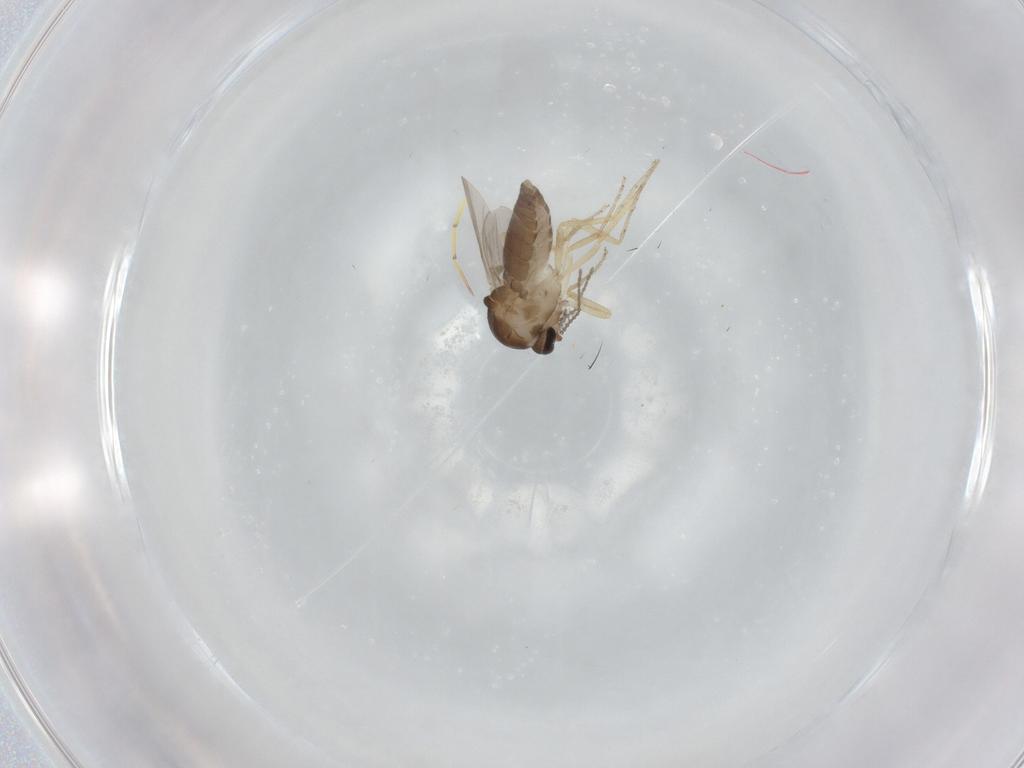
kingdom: Animalia
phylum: Arthropoda
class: Insecta
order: Diptera
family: Ceratopogonidae
